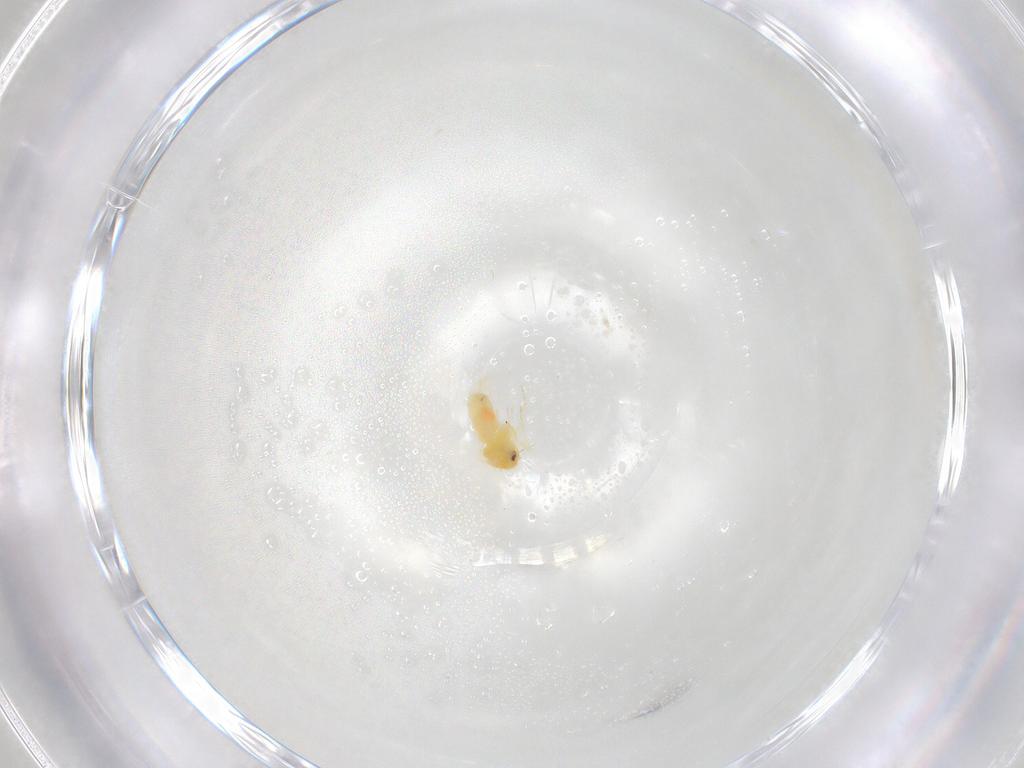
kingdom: Animalia
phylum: Arthropoda
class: Insecta
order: Hemiptera
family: Aleyrodidae
